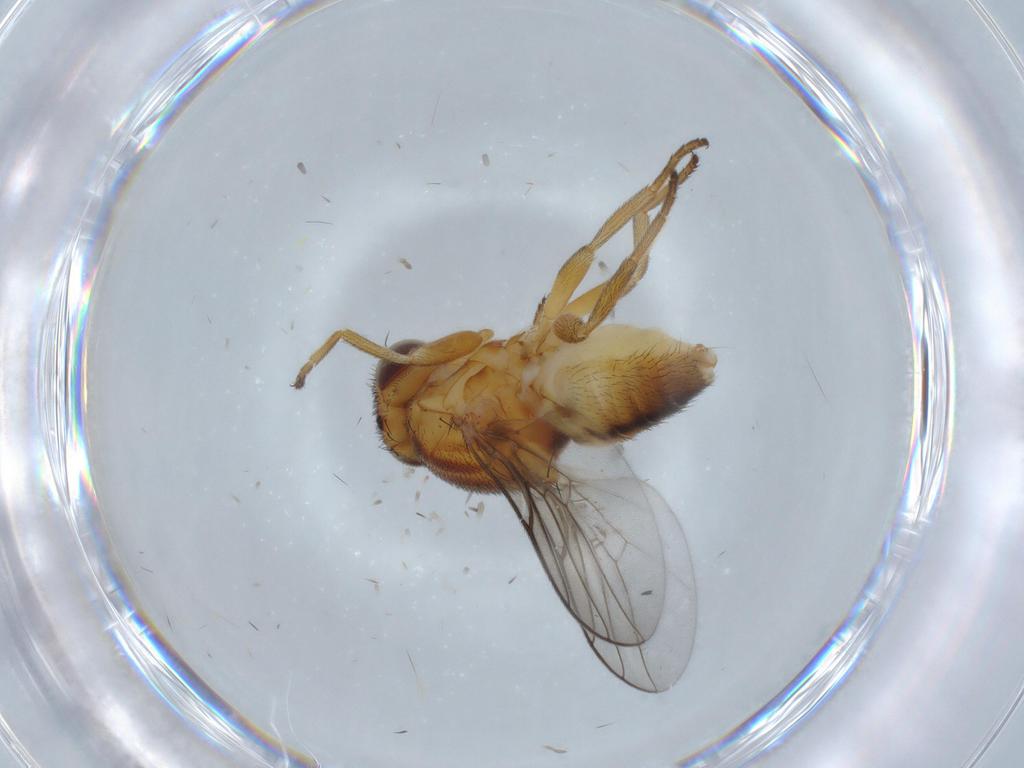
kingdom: Animalia
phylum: Arthropoda
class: Insecta
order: Diptera
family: Chloropidae
